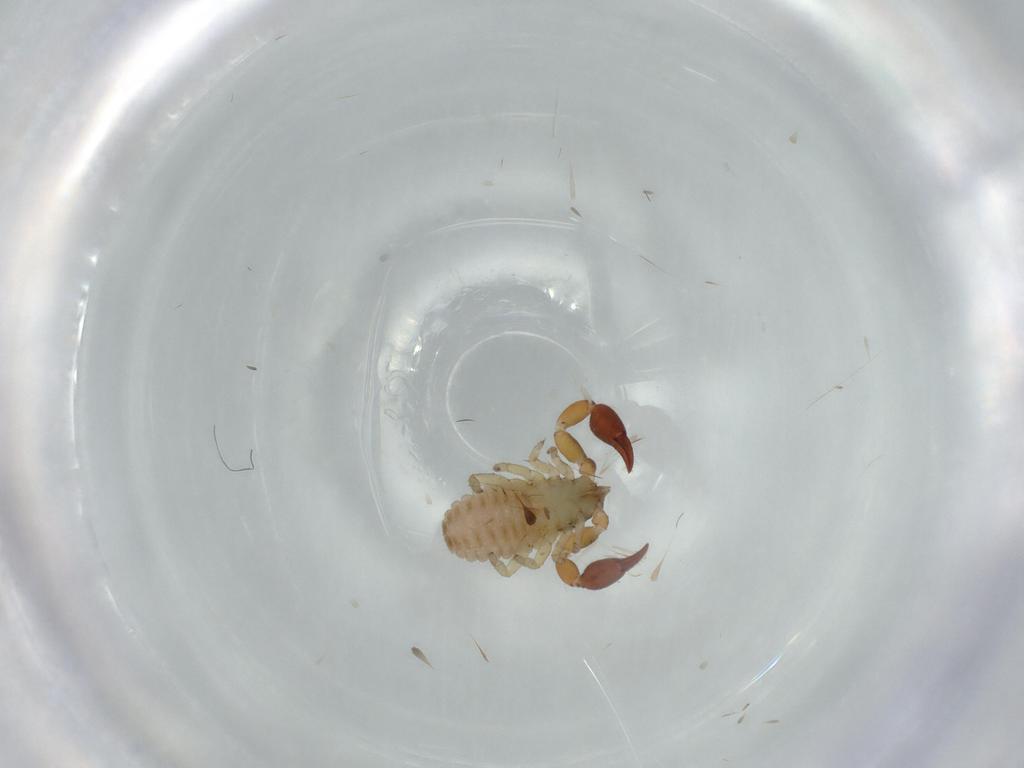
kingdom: Animalia
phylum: Arthropoda
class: Arachnida
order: Pseudoscorpiones
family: Chernetidae
